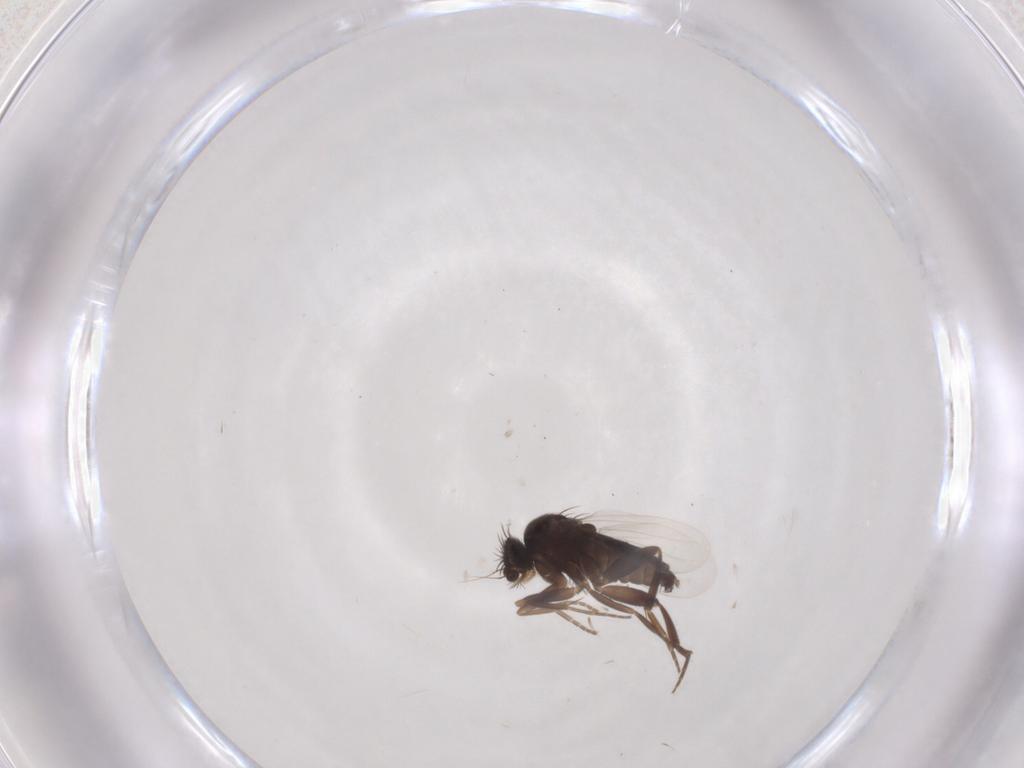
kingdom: Animalia
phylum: Arthropoda
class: Insecta
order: Diptera
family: Phoridae
